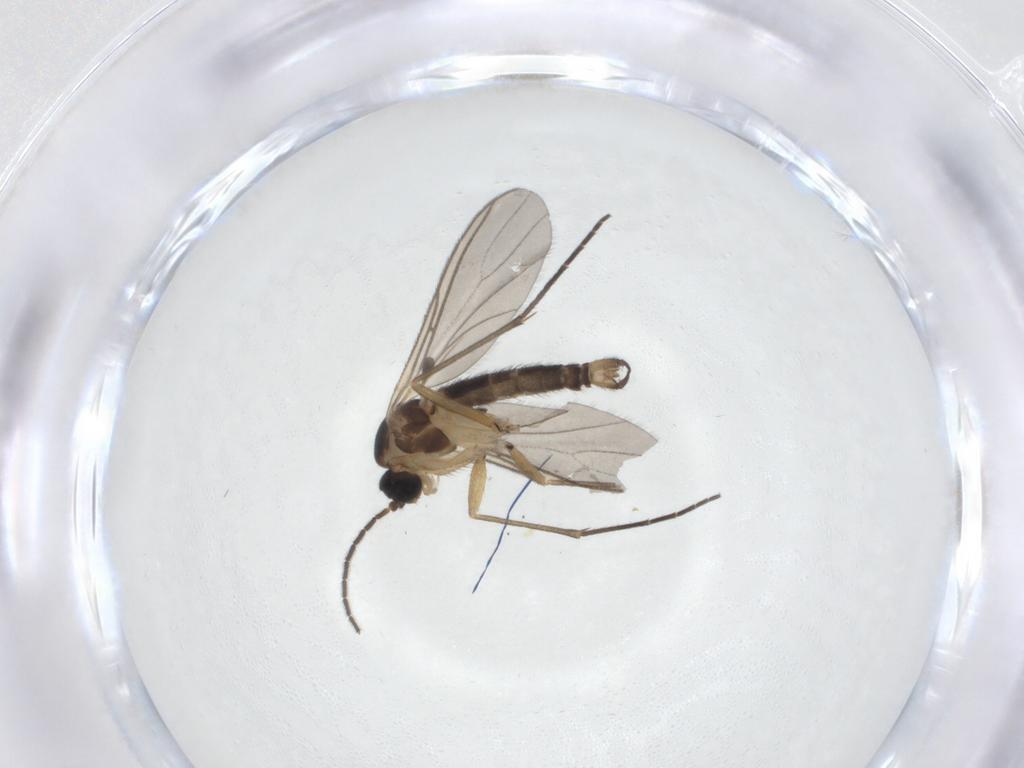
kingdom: Animalia
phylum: Arthropoda
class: Insecta
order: Diptera
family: Sciaridae
